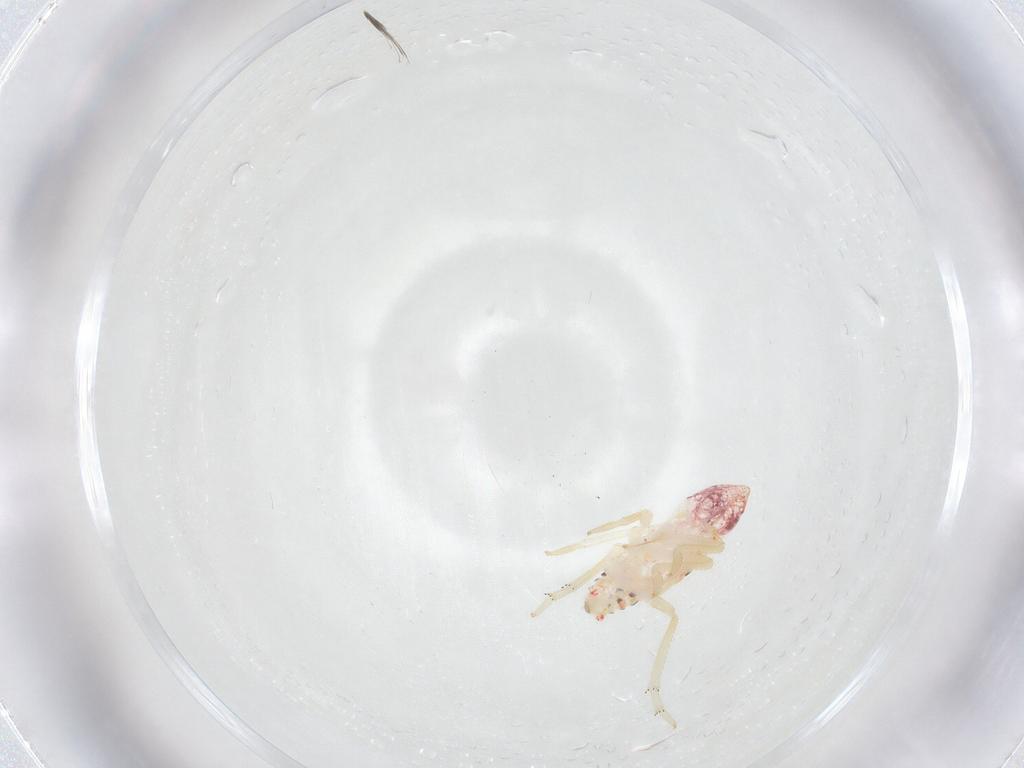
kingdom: Animalia
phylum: Arthropoda
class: Insecta
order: Hemiptera
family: Tropiduchidae
